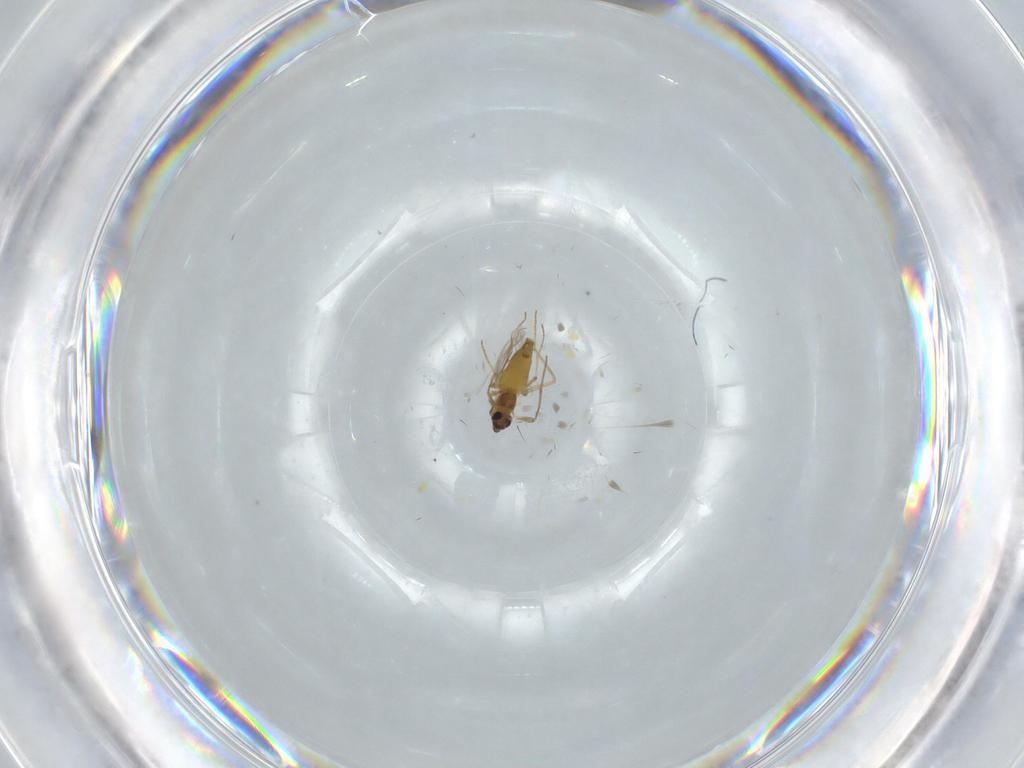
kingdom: Animalia
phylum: Arthropoda
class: Insecta
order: Diptera
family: Chironomidae
